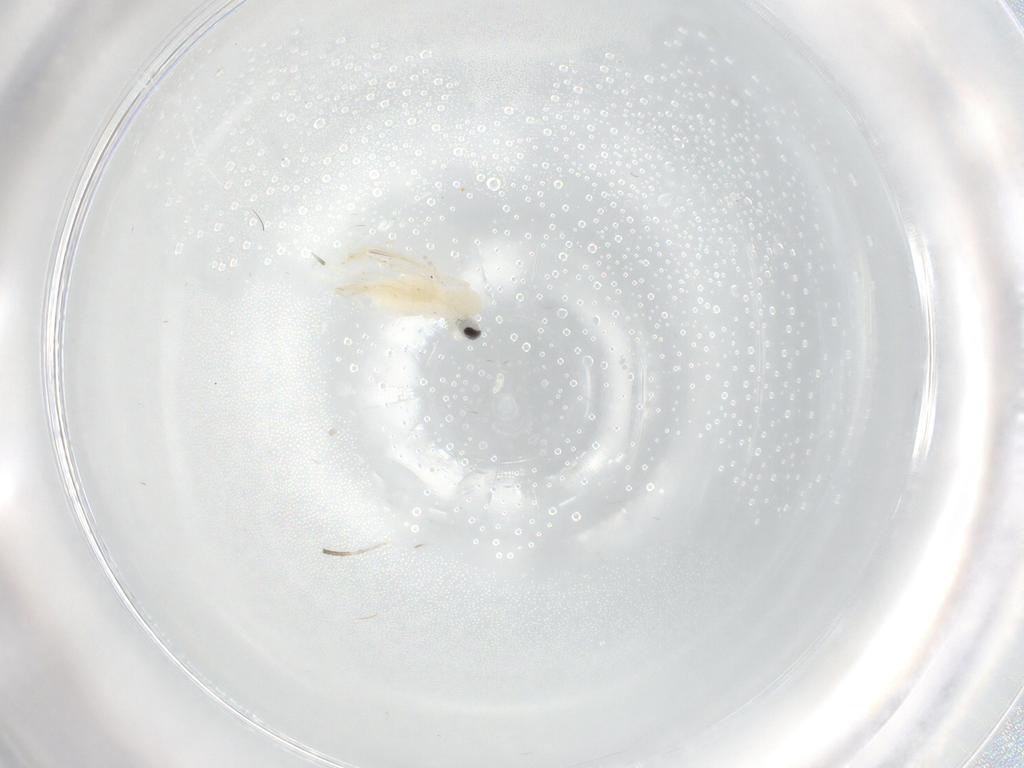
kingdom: Animalia
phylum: Arthropoda
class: Insecta
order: Diptera
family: Cecidomyiidae
